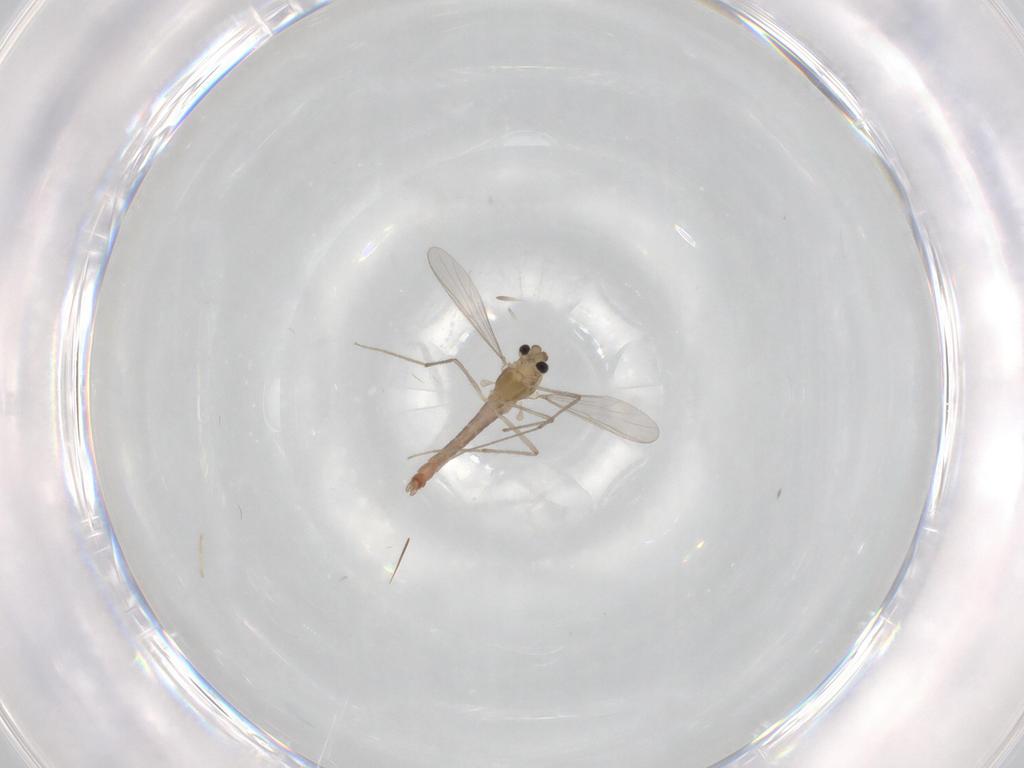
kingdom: Animalia
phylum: Arthropoda
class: Insecta
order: Diptera
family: Chironomidae
